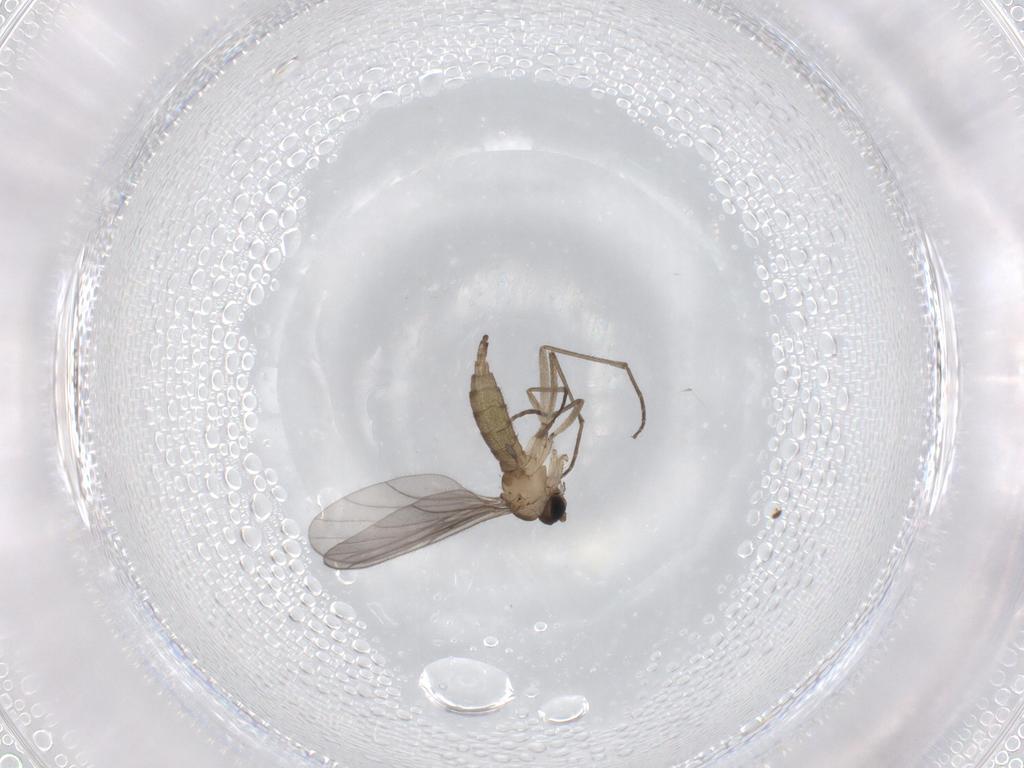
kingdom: Animalia
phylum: Arthropoda
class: Insecta
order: Diptera
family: Sciaridae
